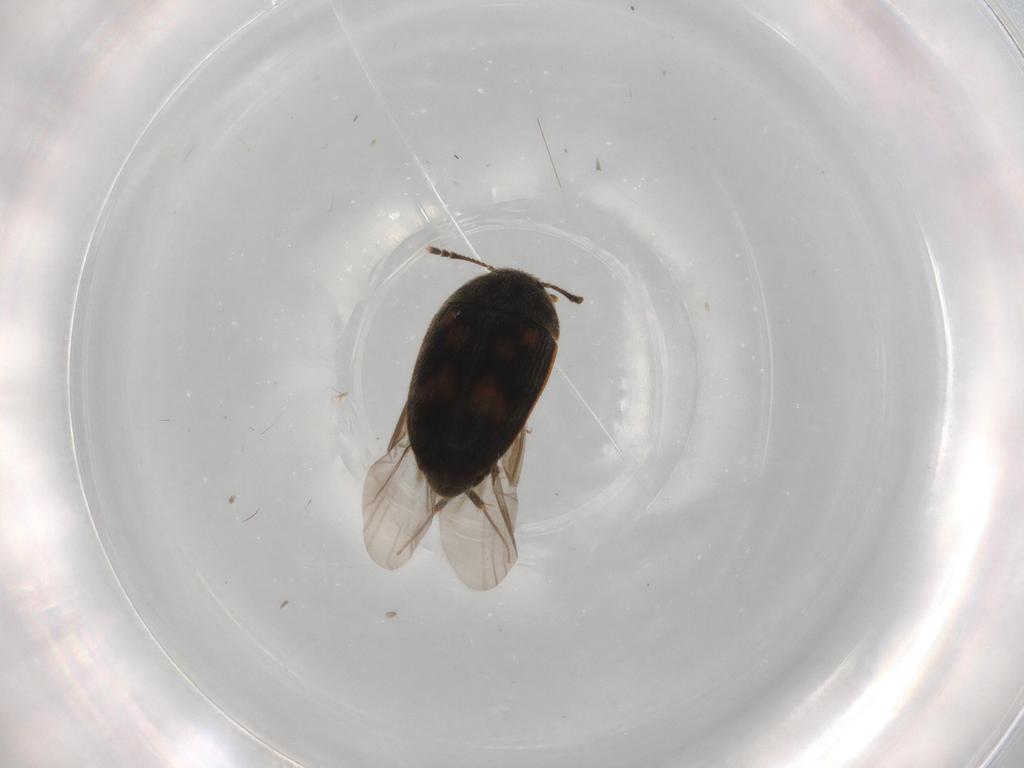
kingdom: Animalia
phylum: Arthropoda
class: Insecta
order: Coleoptera
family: Mycetophagidae
